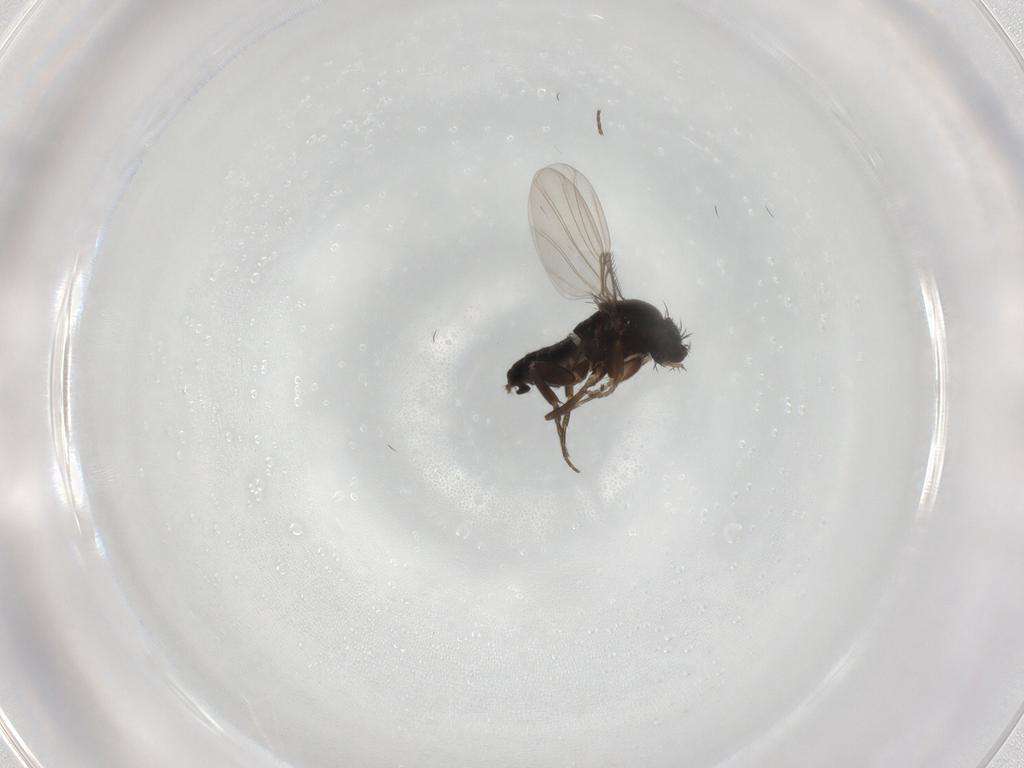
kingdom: Animalia
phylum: Arthropoda
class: Insecta
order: Diptera
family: Phoridae
